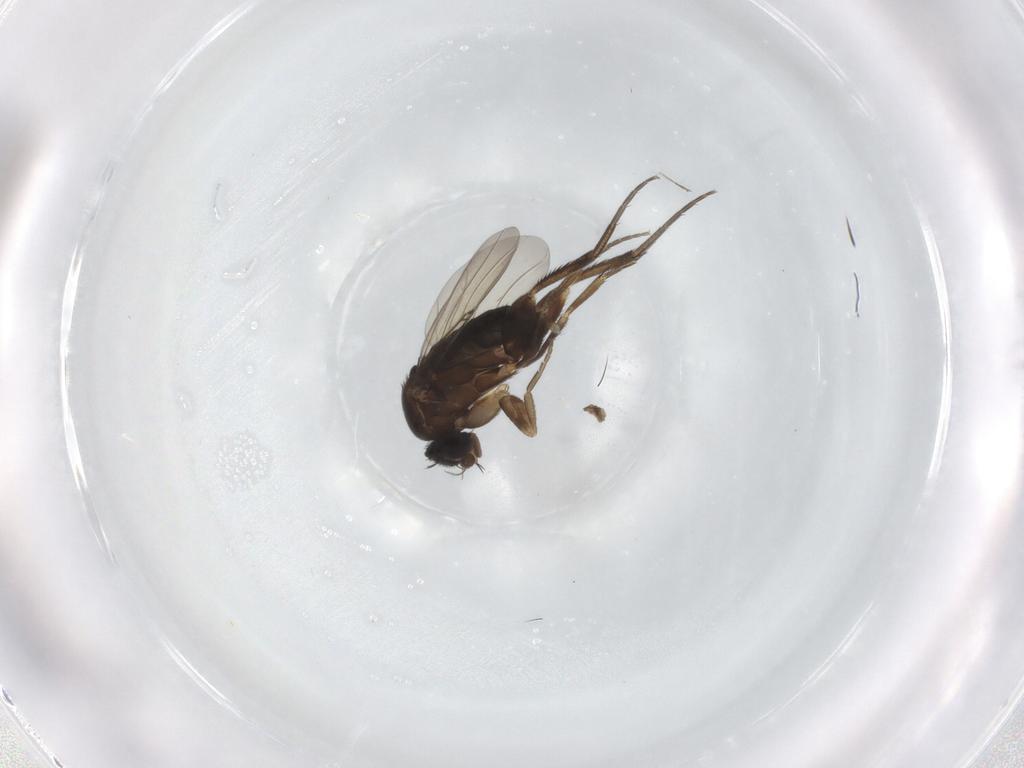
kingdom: Animalia
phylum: Arthropoda
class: Insecta
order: Diptera
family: Phoridae
